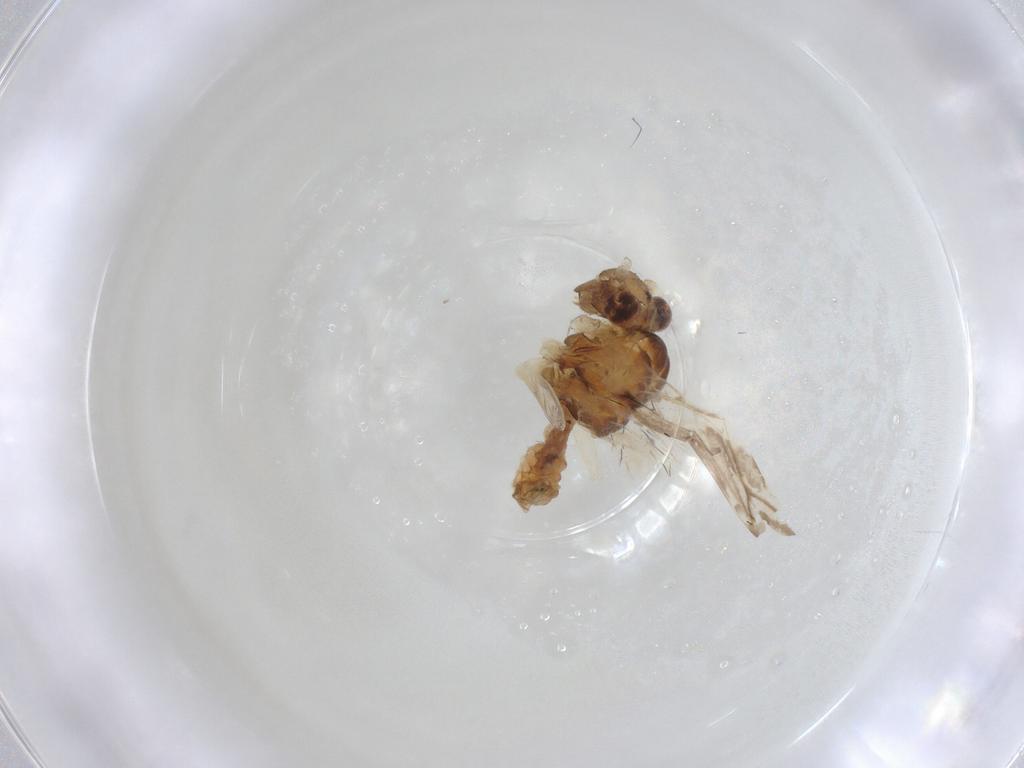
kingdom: Animalia
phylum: Arthropoda
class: Insecta
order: Psocodea
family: Caeciliusidae
